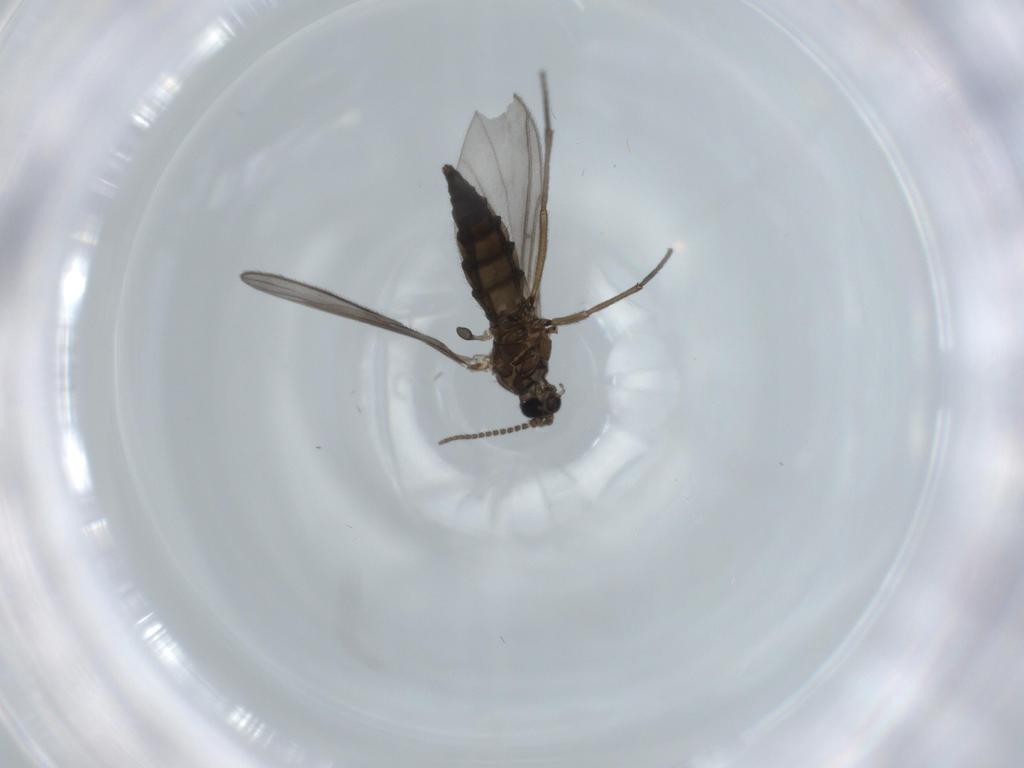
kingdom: Animalia
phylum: Arthropoda
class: Insecta
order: Diptera
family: Sciaridae
